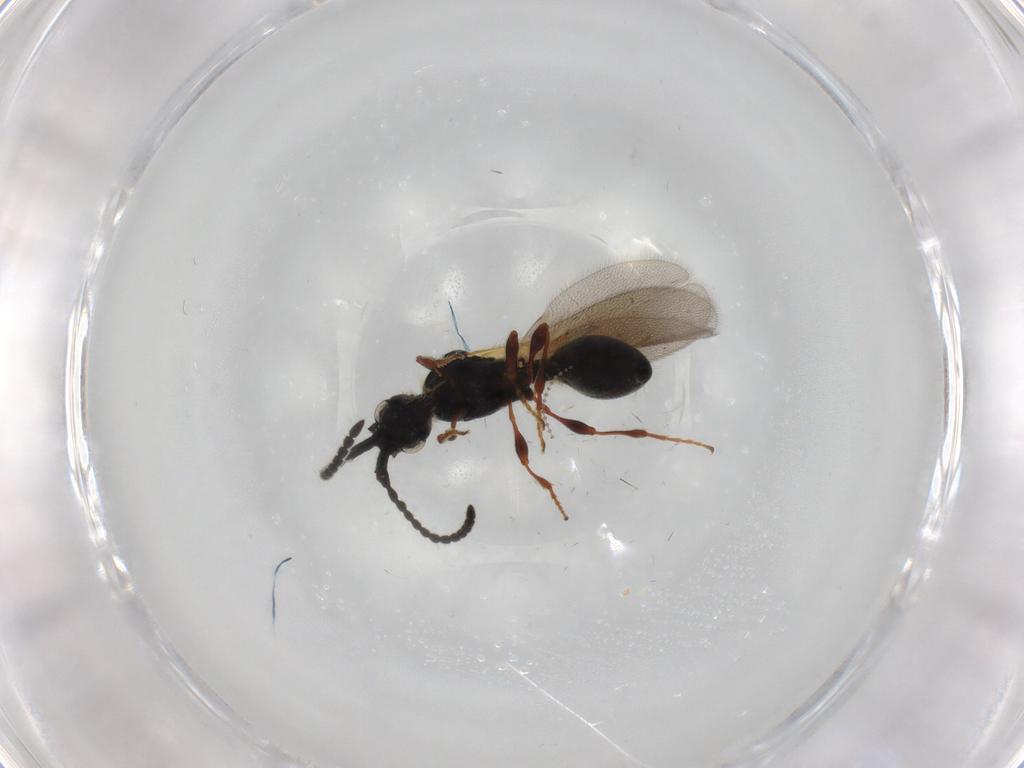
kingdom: Animalia
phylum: Arthropoda
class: Insecta
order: Hymenoptera
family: Diapriidae
